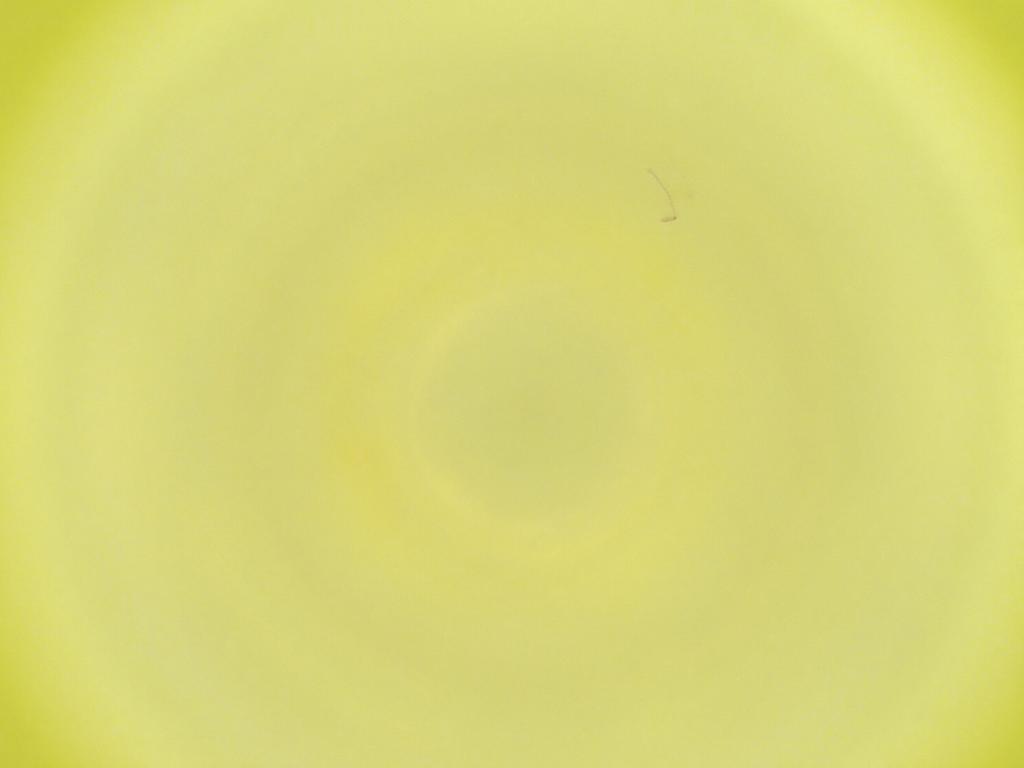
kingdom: Animalia
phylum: Arthropoda
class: Insecta
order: Diptera
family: Cecidomyiidae
